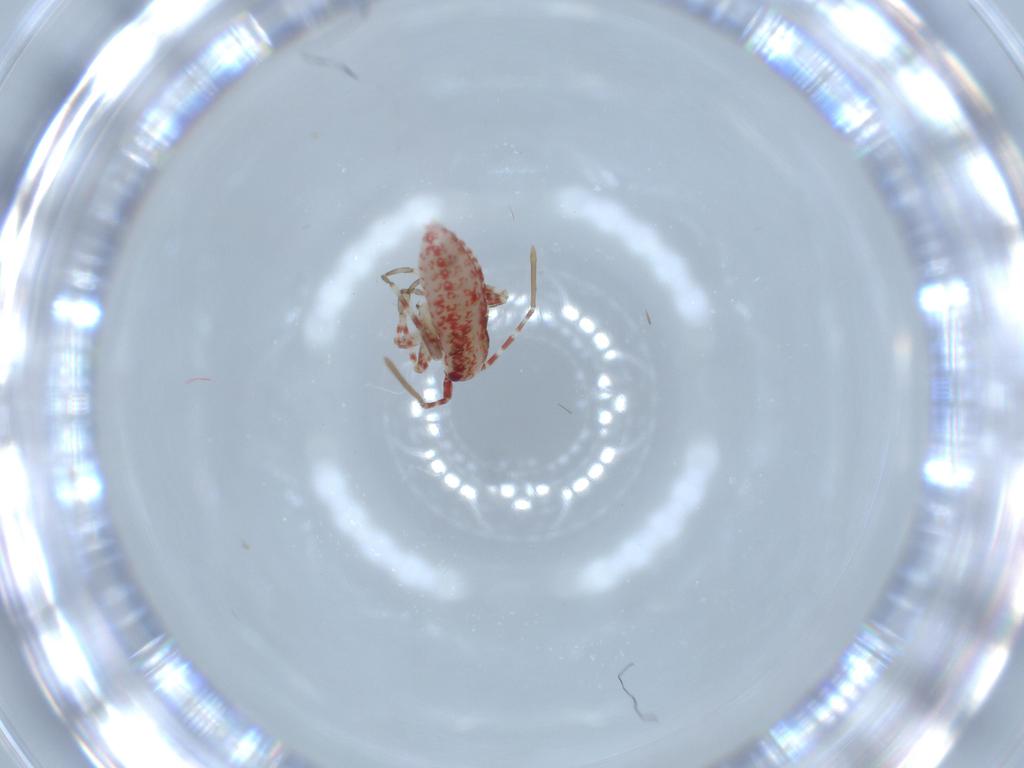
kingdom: Animalia
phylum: Arthropoda
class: Insecta
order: Hemiptera
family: Miridae
